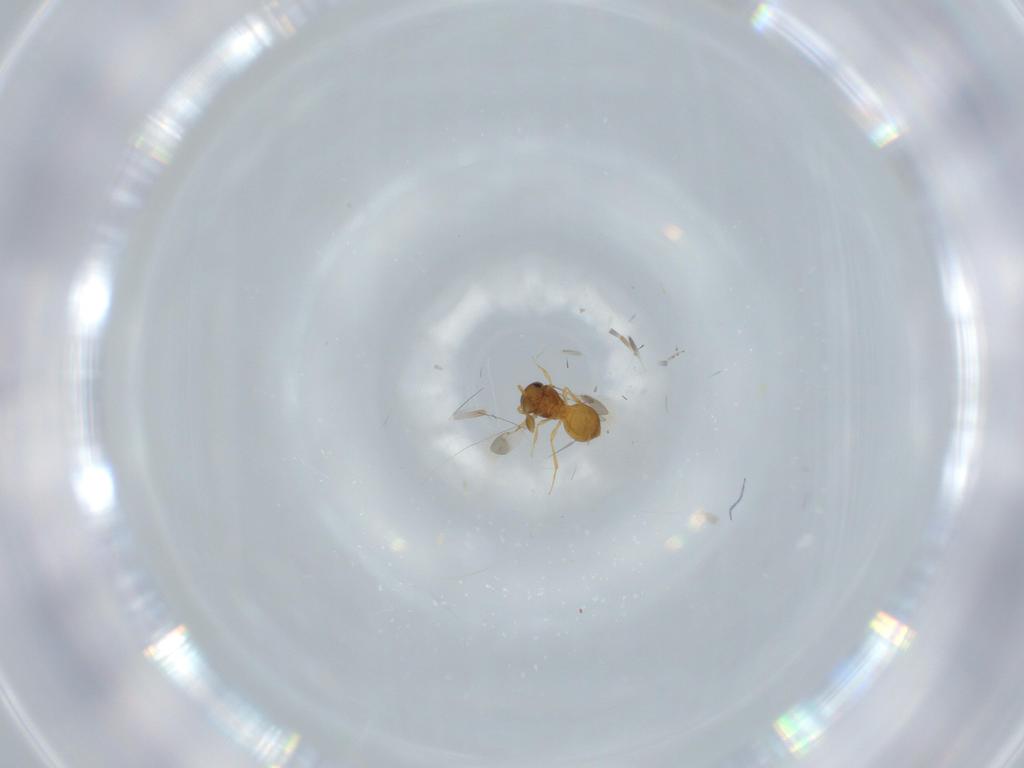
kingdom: Animalia
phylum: Arthropoda
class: Insecta
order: Hymenoptera
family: Scelionidae
